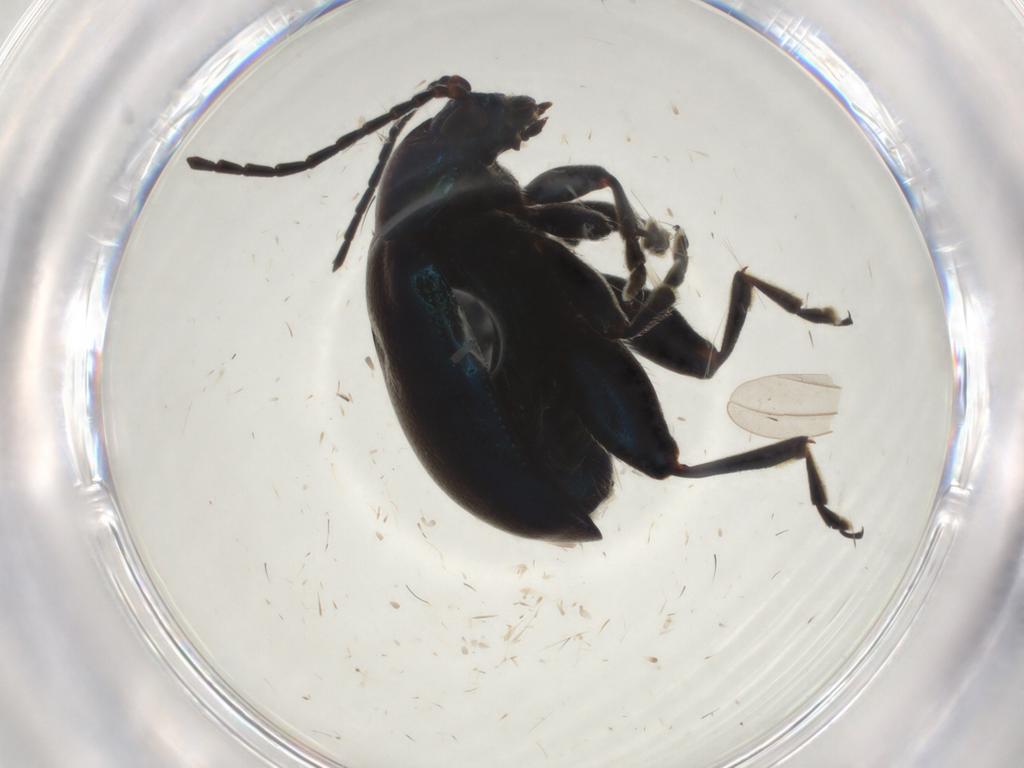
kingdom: Animalia
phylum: Arthropoda
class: Insecta
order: Coleoptera
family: Chrysomelidae
